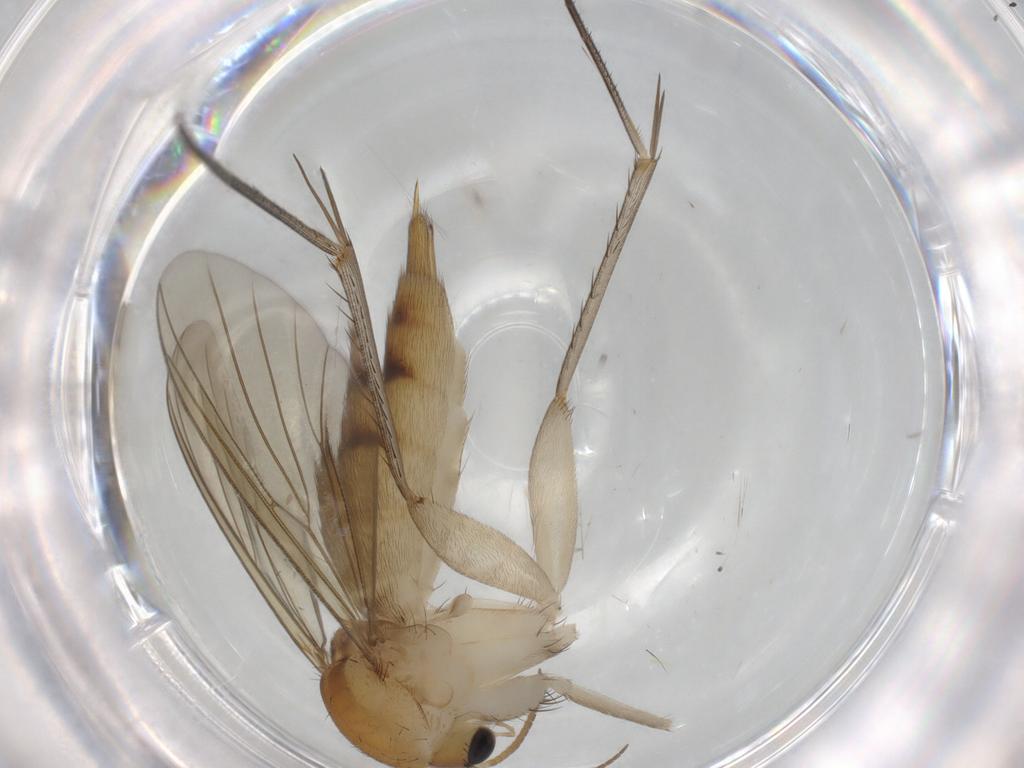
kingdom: Animalia
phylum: Arthropoda
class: Insecta
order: Diptera
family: Mycetophilidae
